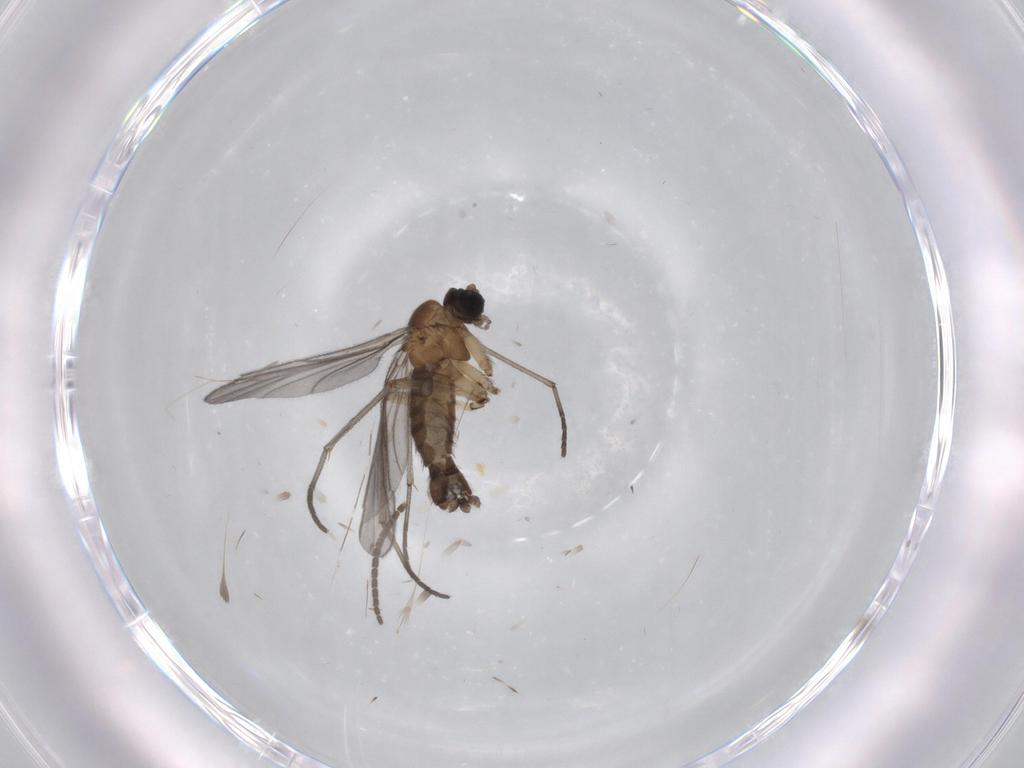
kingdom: Animalia
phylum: Arthropoda
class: Insecta
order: Diptera
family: Sciaridae
